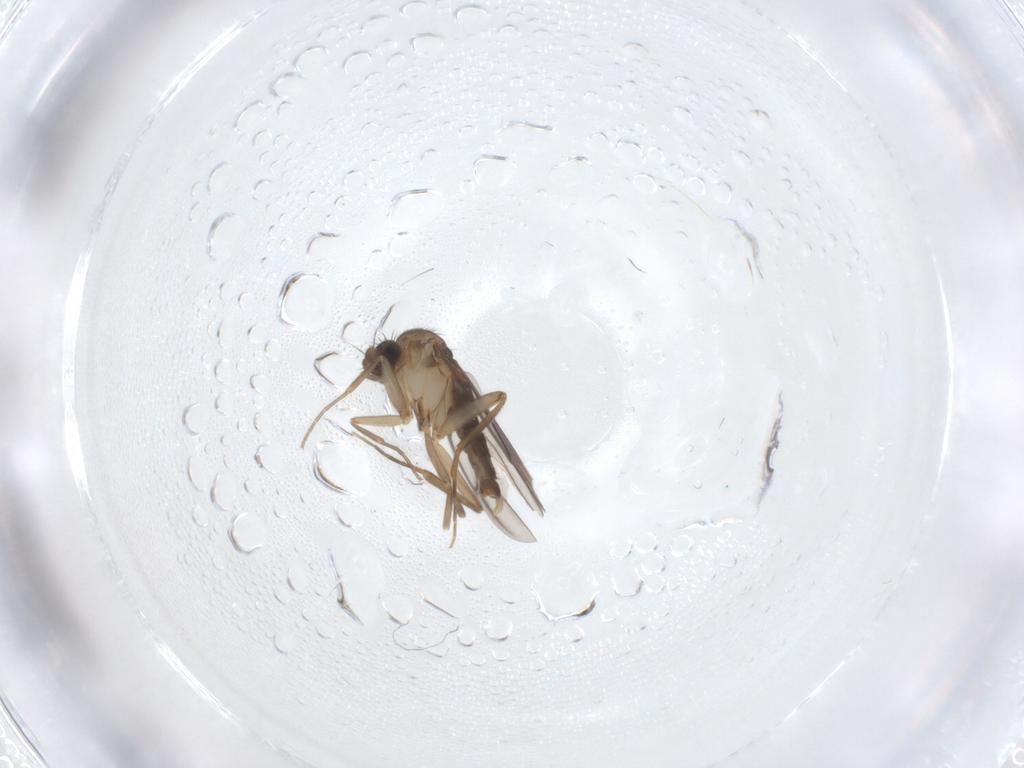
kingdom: Animalia
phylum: Arthropoda
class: Insecta
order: Diptera
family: Phoridae
